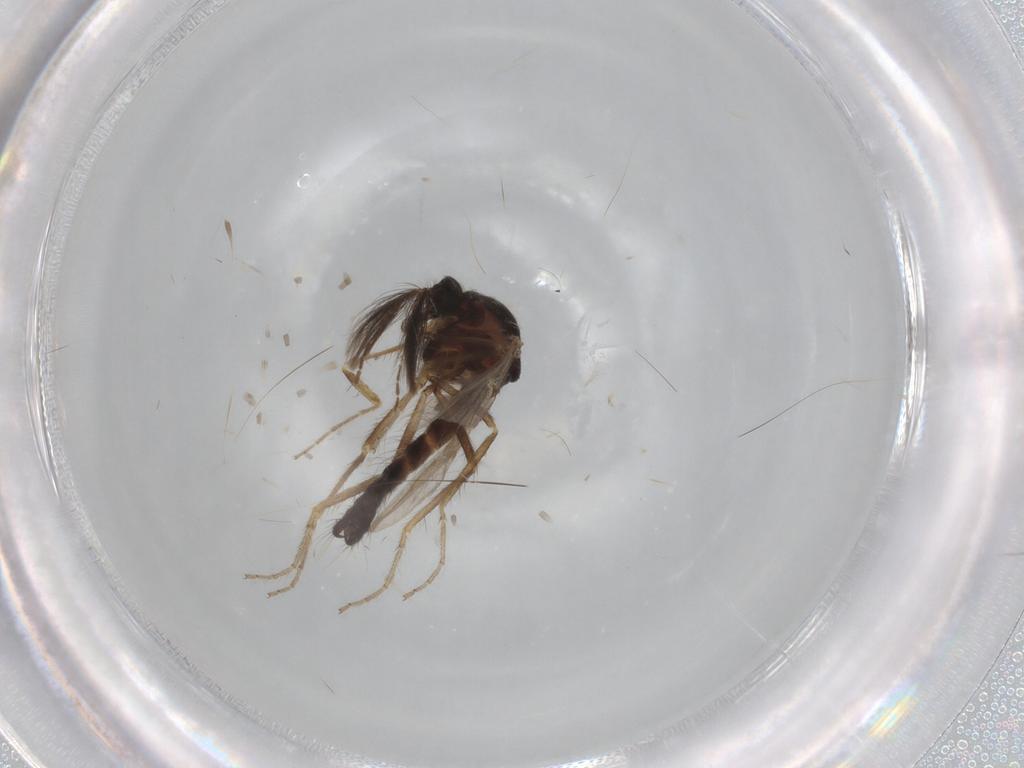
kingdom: Animalia
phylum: Arthropoda
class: Insecta
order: Diptera
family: Ceratopogonidae
